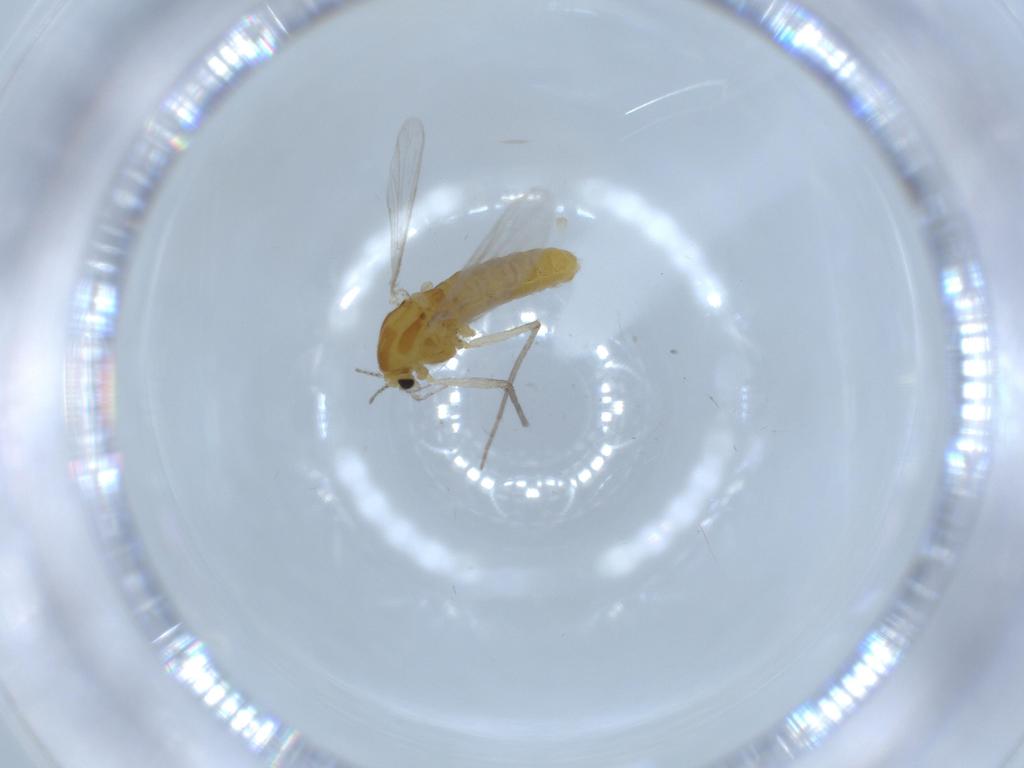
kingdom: Animalia
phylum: Arthropoda
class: Insecta
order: Diptera
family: Chironomidae
